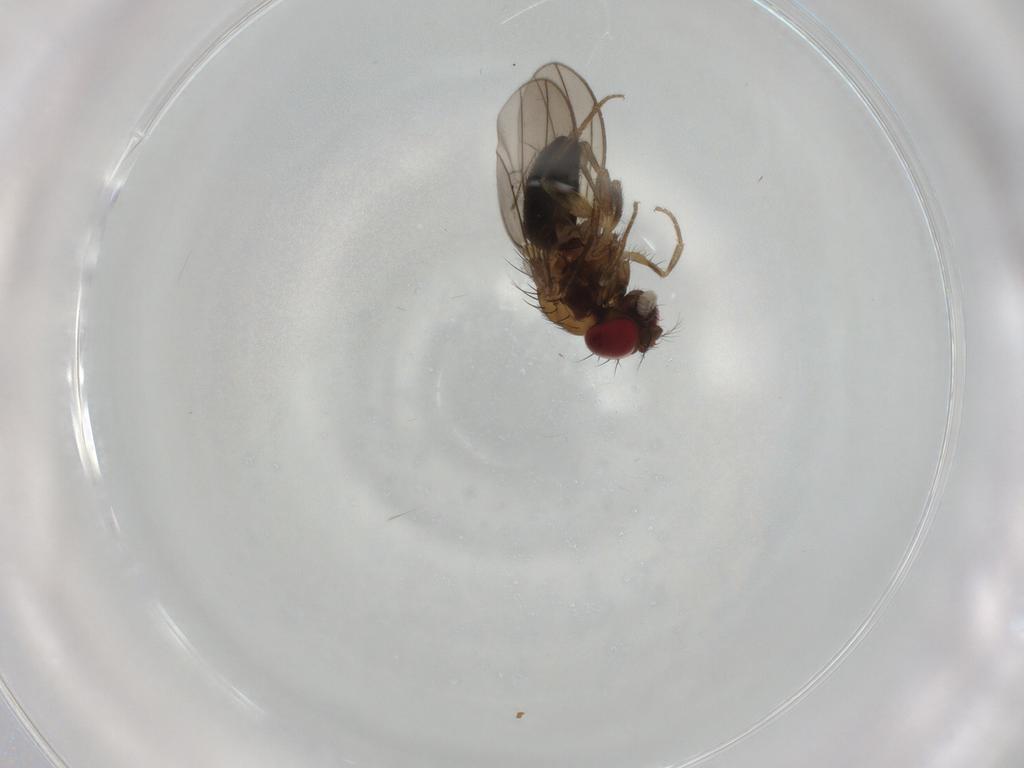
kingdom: Animalia
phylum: Arthropoda
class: Insecta
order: Diptera
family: Drosophilidae
